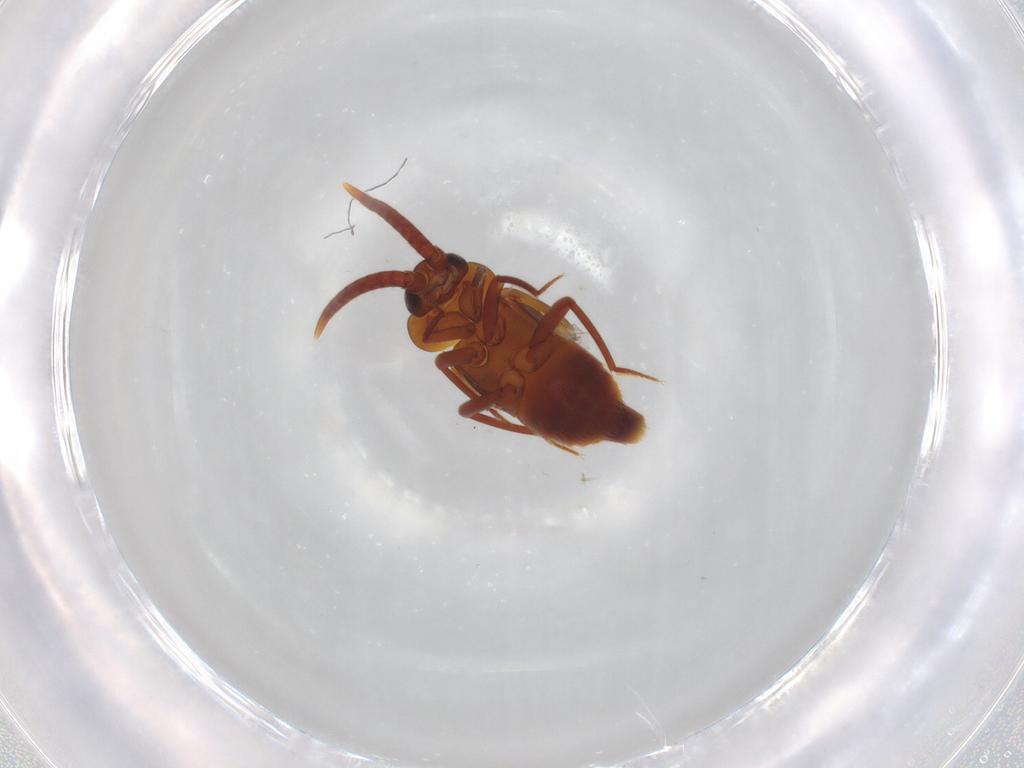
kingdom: Animalia
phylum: Arthropoda
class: Insecta
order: Coleoptera
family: Staphylinidae
